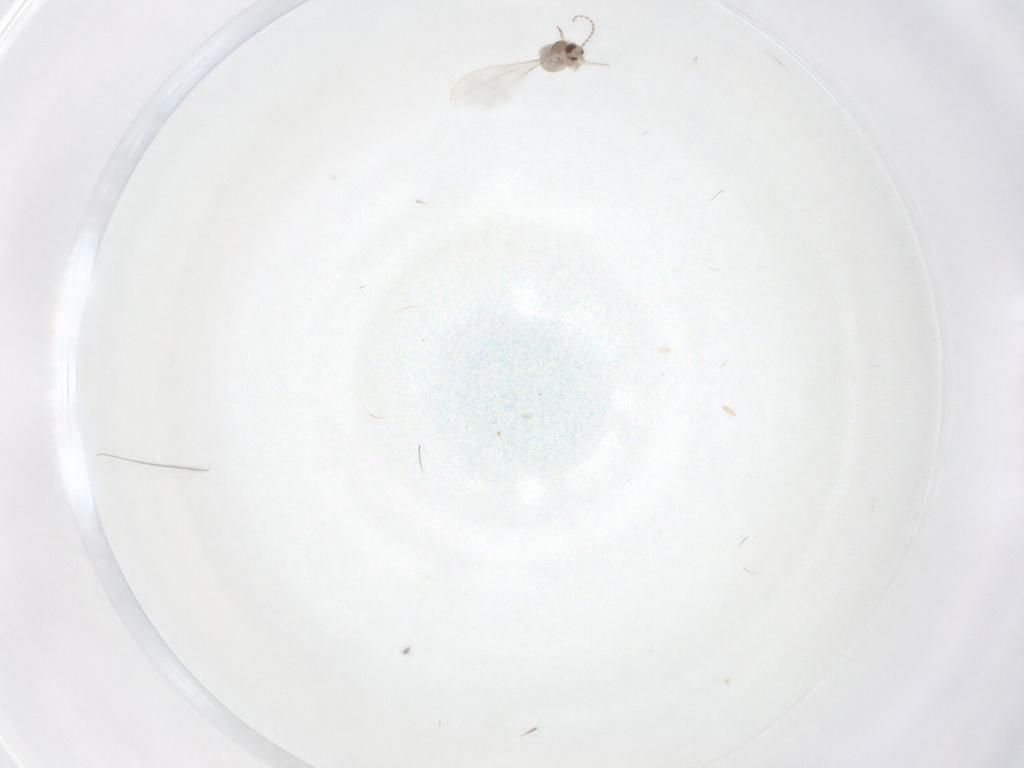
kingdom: Animalia
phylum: Arthropoda
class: Insecta
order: Diptera
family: Cecidomyiidae
